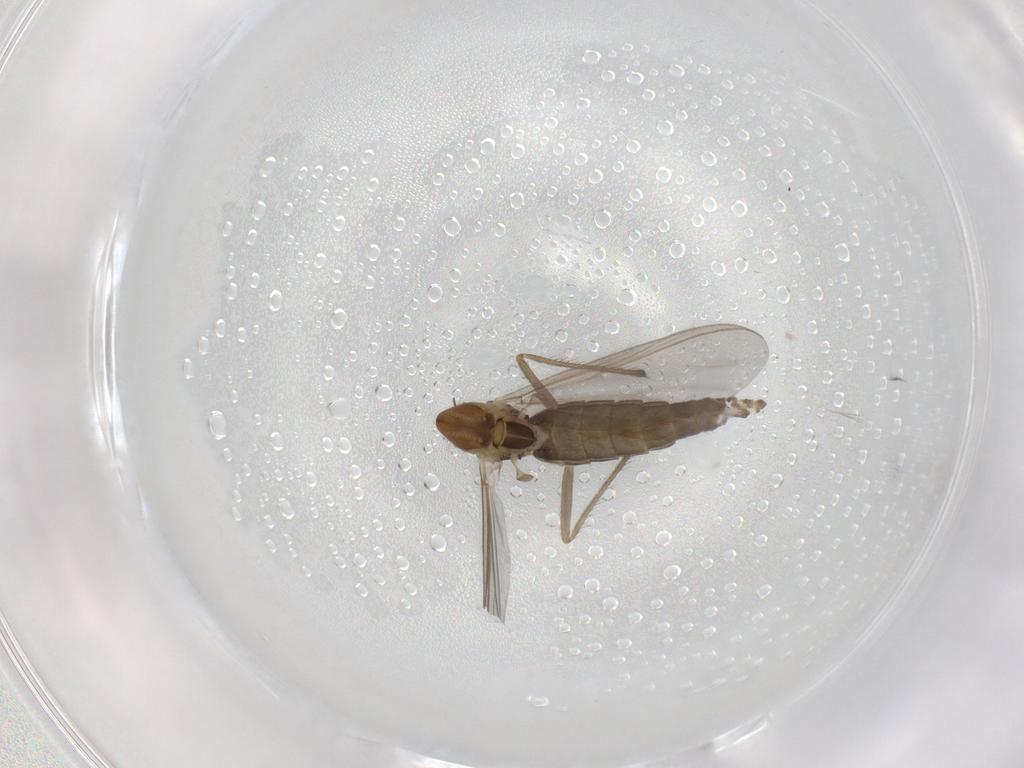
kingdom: Animalia
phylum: Arthropoda
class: Insecta
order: Diptera
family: Chironomidae
